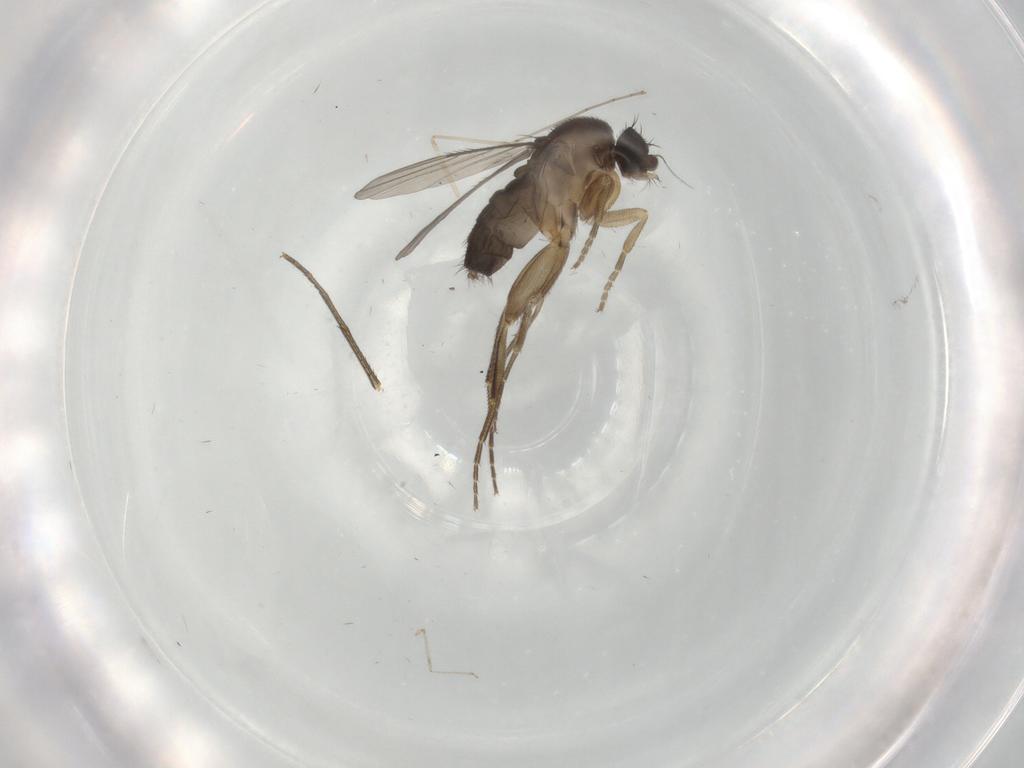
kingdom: Animalia
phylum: Arthropoda
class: Insecta
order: Diptera
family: Phoridae
